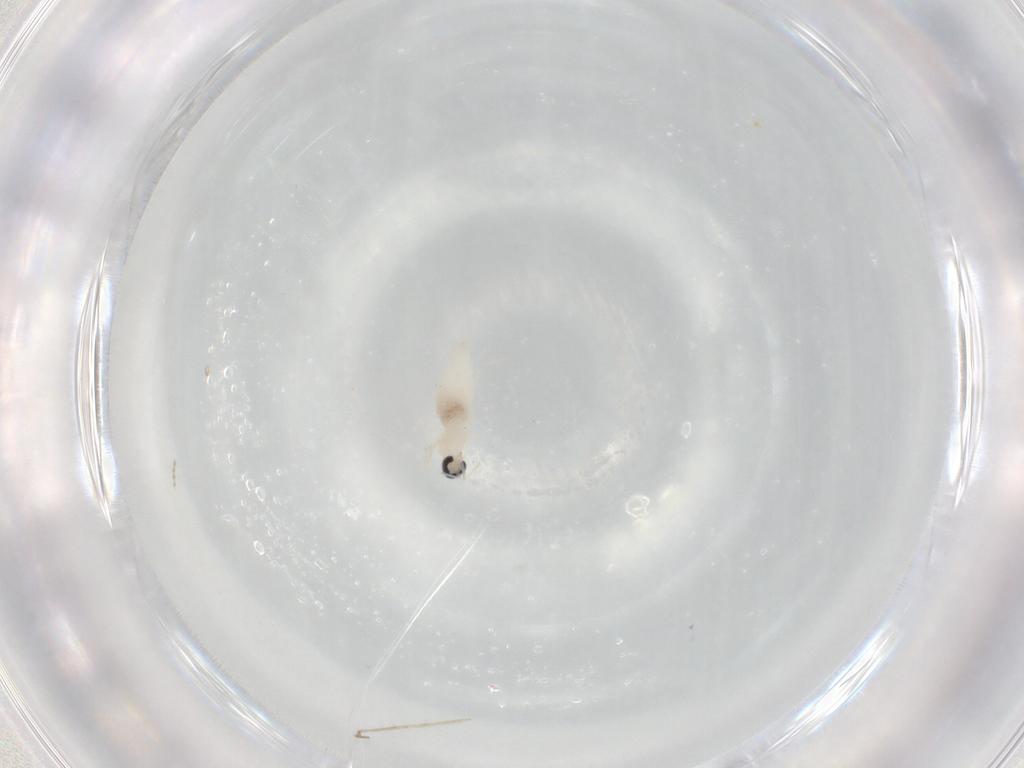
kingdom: Animalia
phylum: Arthropoda
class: Insecta
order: Diptera
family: Cecidomyiidae
